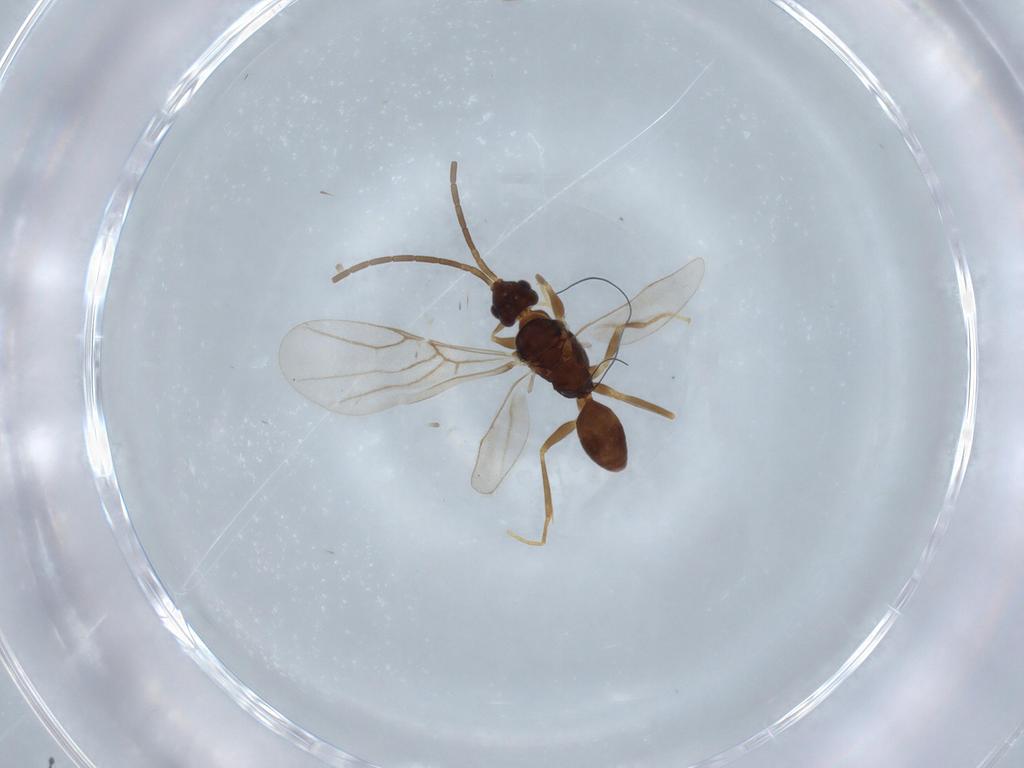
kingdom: Animalia
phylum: Arthropoda
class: Insecta
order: Hymenoptera
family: Embolemidae
